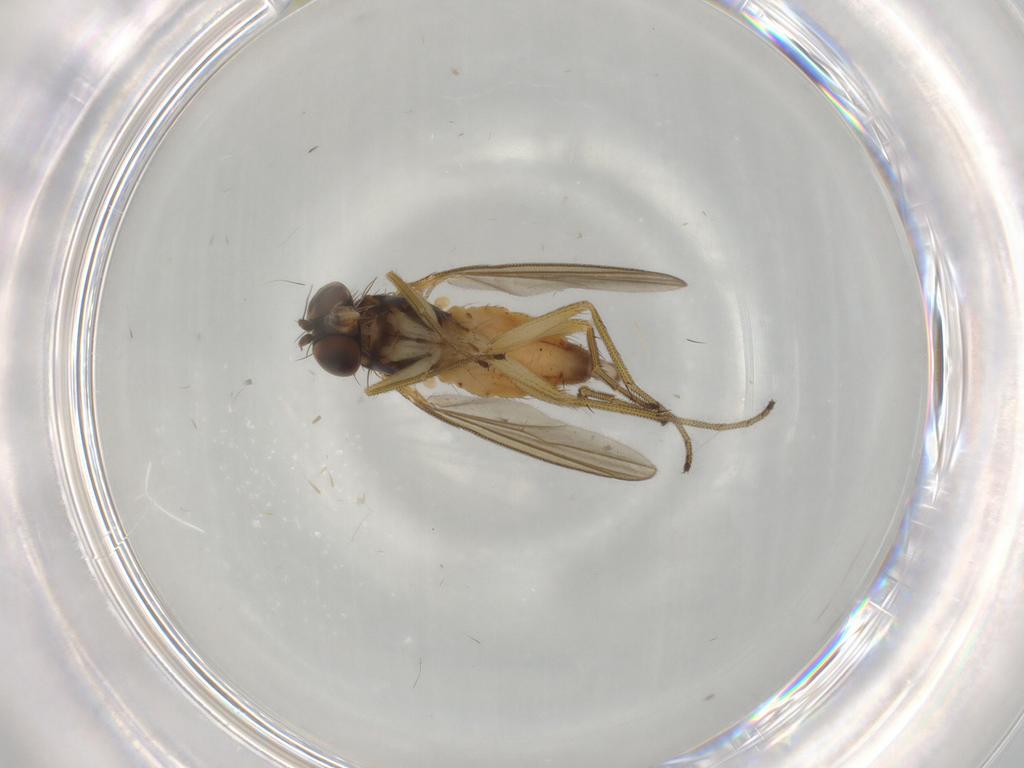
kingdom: Animalia
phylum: Arthropoda
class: Insecta
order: Diptera
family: Dolichopodidae
